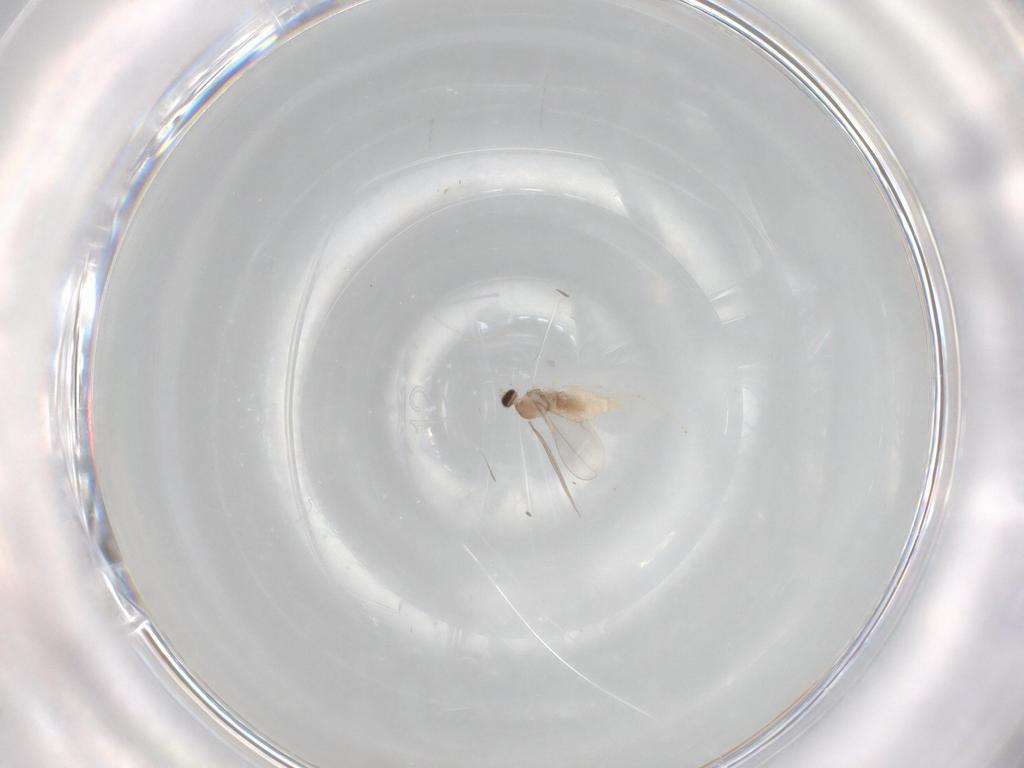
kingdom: Animalia
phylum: Arthropoda
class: Insecta
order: Diptera
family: Cecidomyiidae
